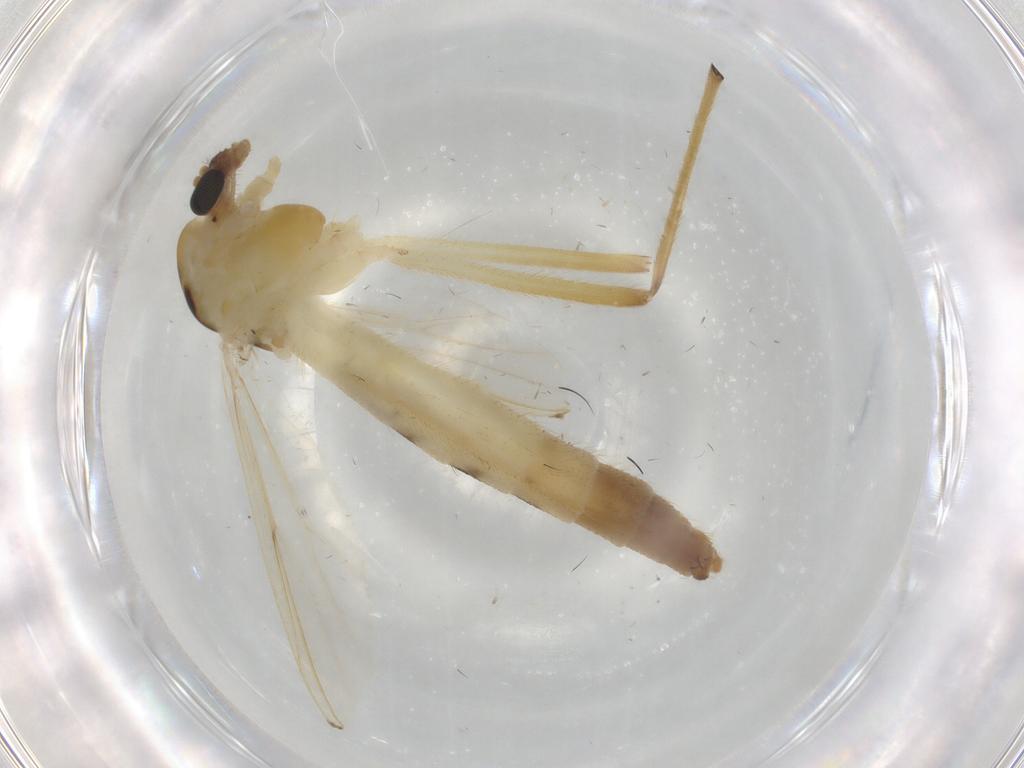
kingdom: Animalia
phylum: Arthropoda
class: Insecta
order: Diptera
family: Chironomidae
